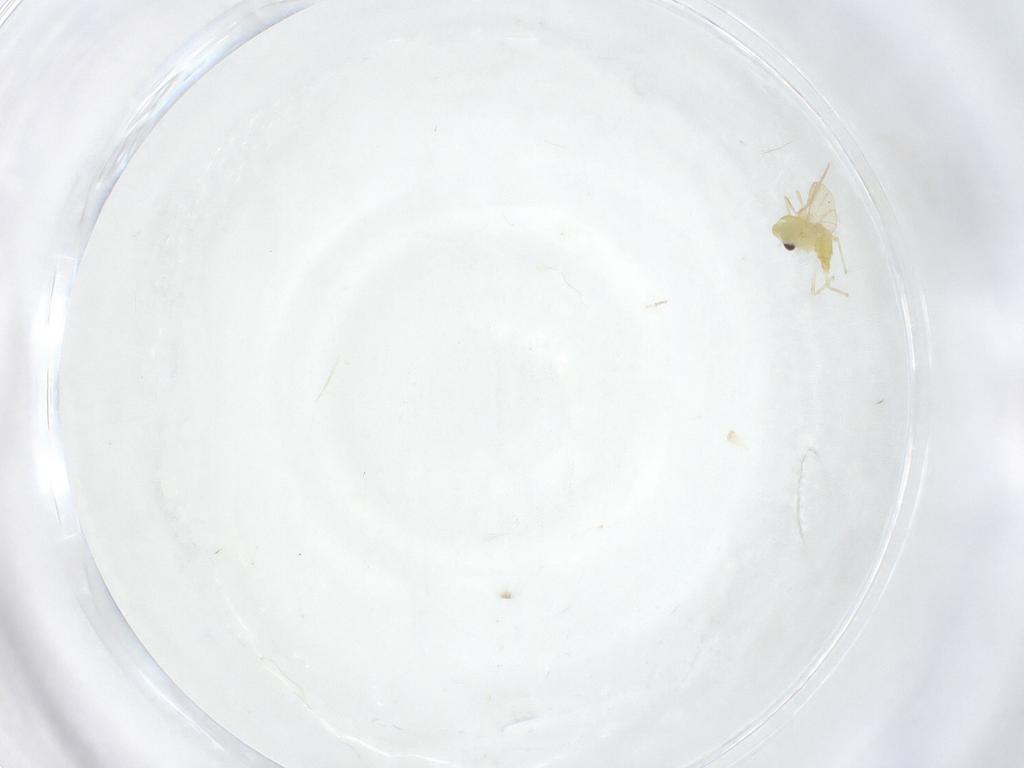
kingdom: Animalia
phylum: Arthropoda
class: Insecta
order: Diptera
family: Chironomidae
